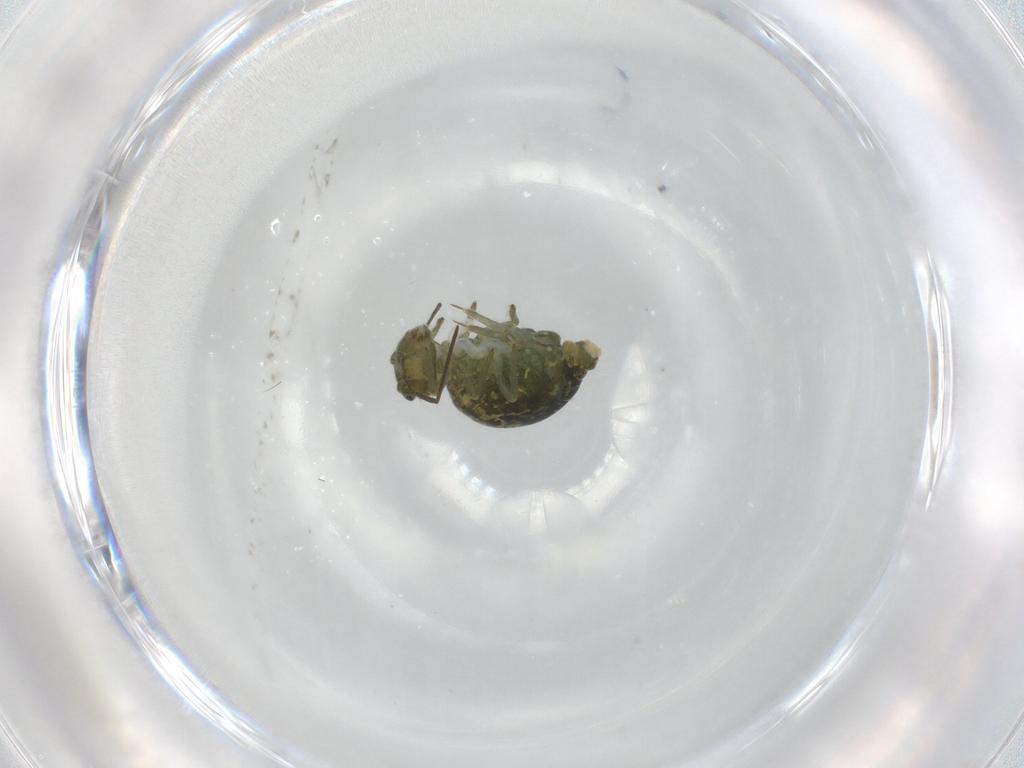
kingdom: Animalia
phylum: Arthropoda
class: Collembola
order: Symphypleona
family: Sminthuridae
